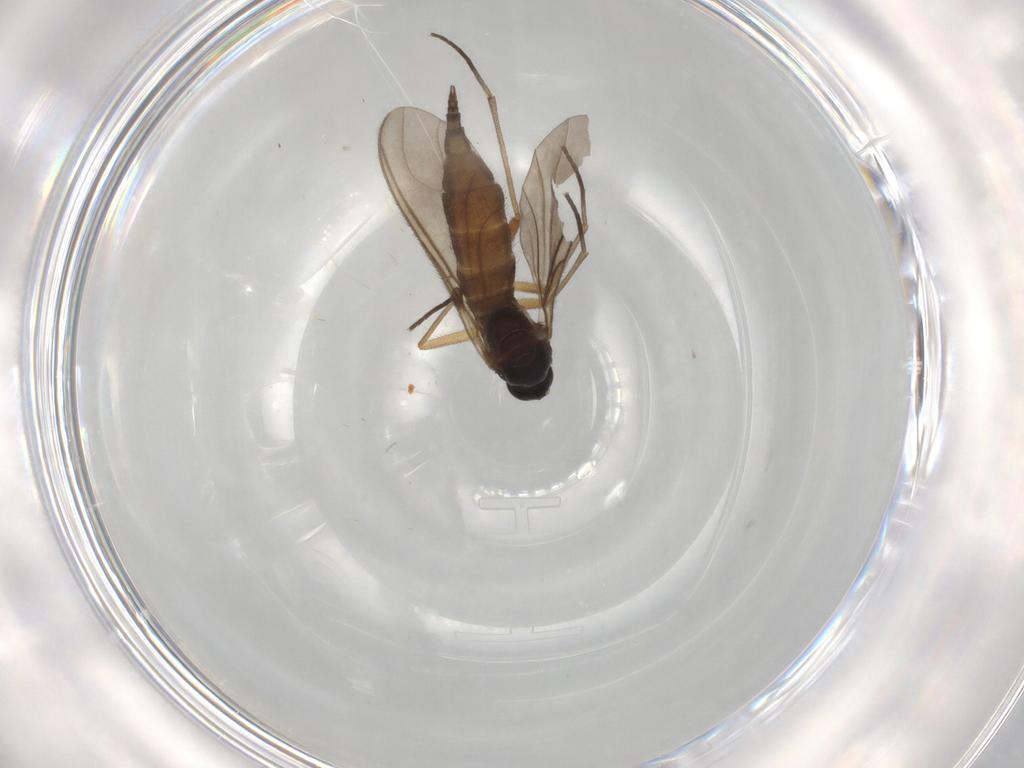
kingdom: Animalia
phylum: Arthropoda
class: Insecta
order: Diptera
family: Sciaridae
